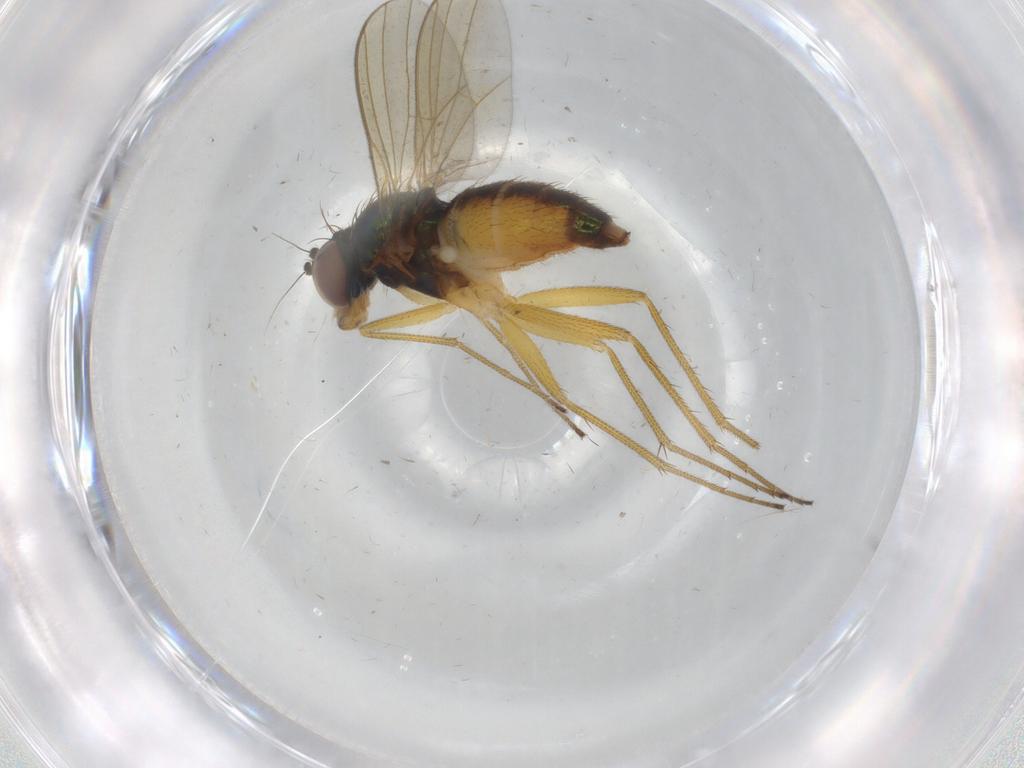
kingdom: Animalia
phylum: Arthropoda
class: Insecta
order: Diptera
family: Dolichopodidae
